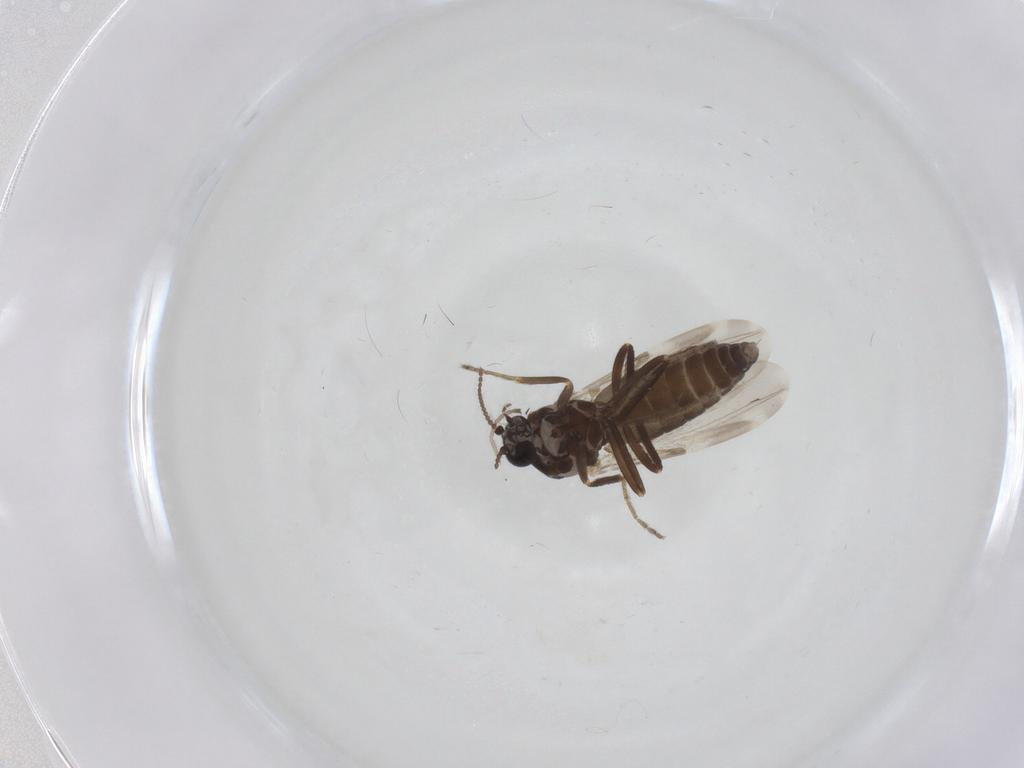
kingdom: Animalia
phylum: Arthropoda
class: Insecta
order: Diptera
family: Ceratopogonidae
